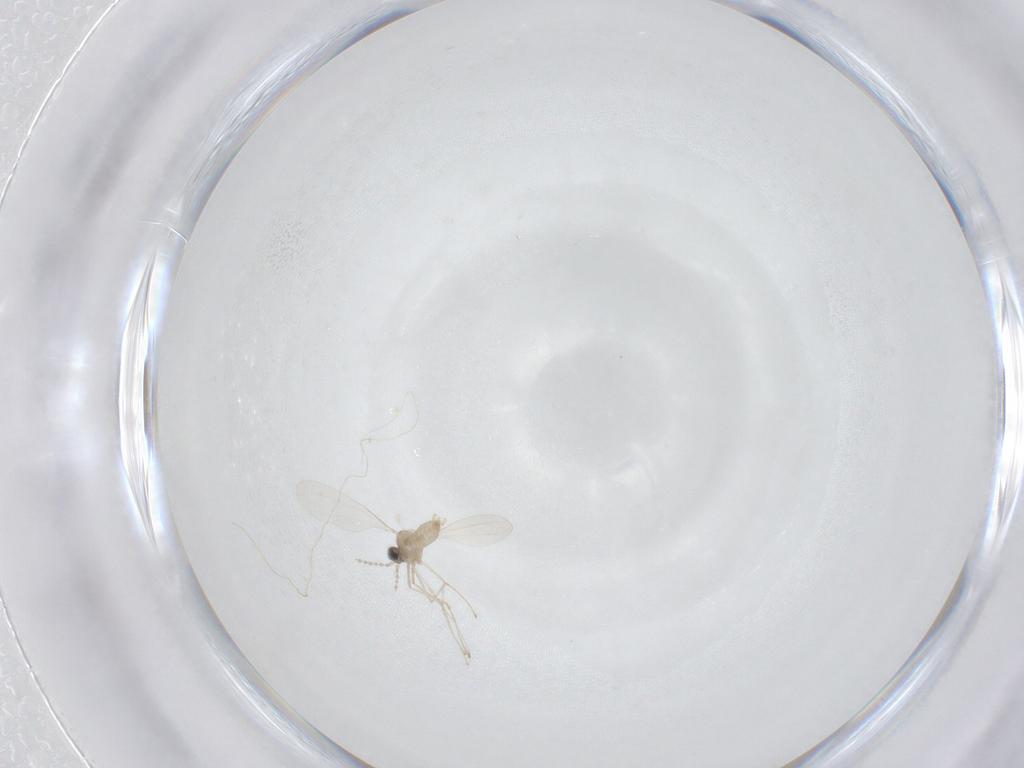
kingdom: Animalia
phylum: Arthropoda
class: Insecta
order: Diptera
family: Cecidomyiidae
